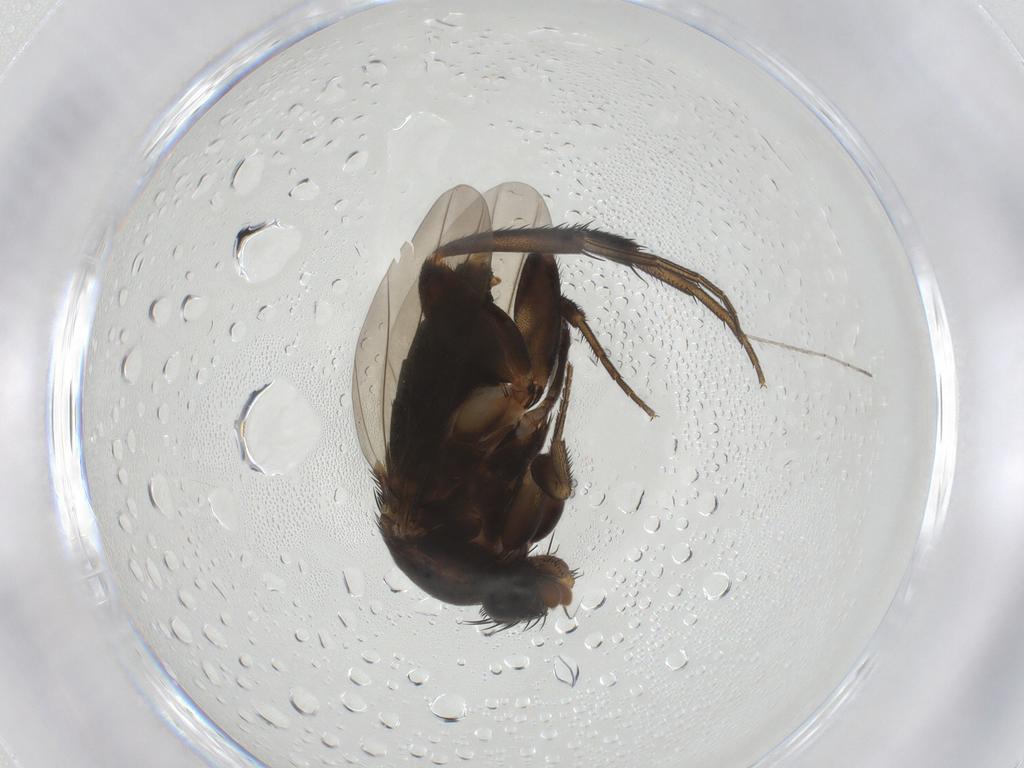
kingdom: Animalia
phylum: Arthropoda
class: Insecta
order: Diptera
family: Phoridae
